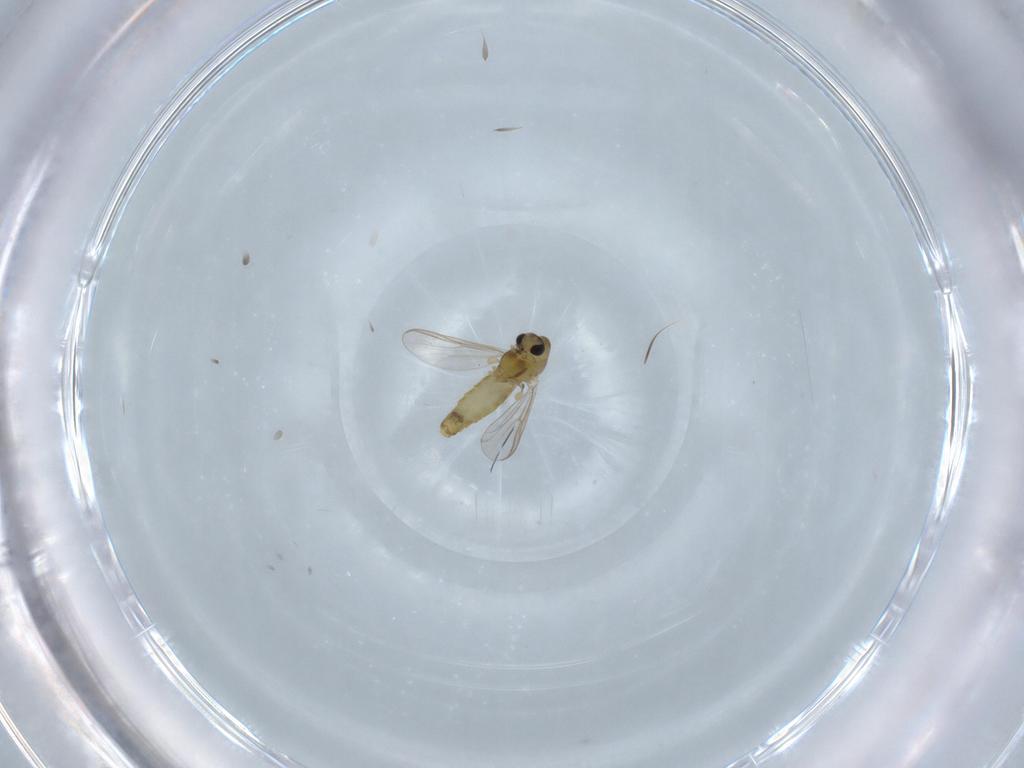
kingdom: Animalia
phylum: Arthropoda
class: Insecta
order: Diptera
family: Chironomidae
